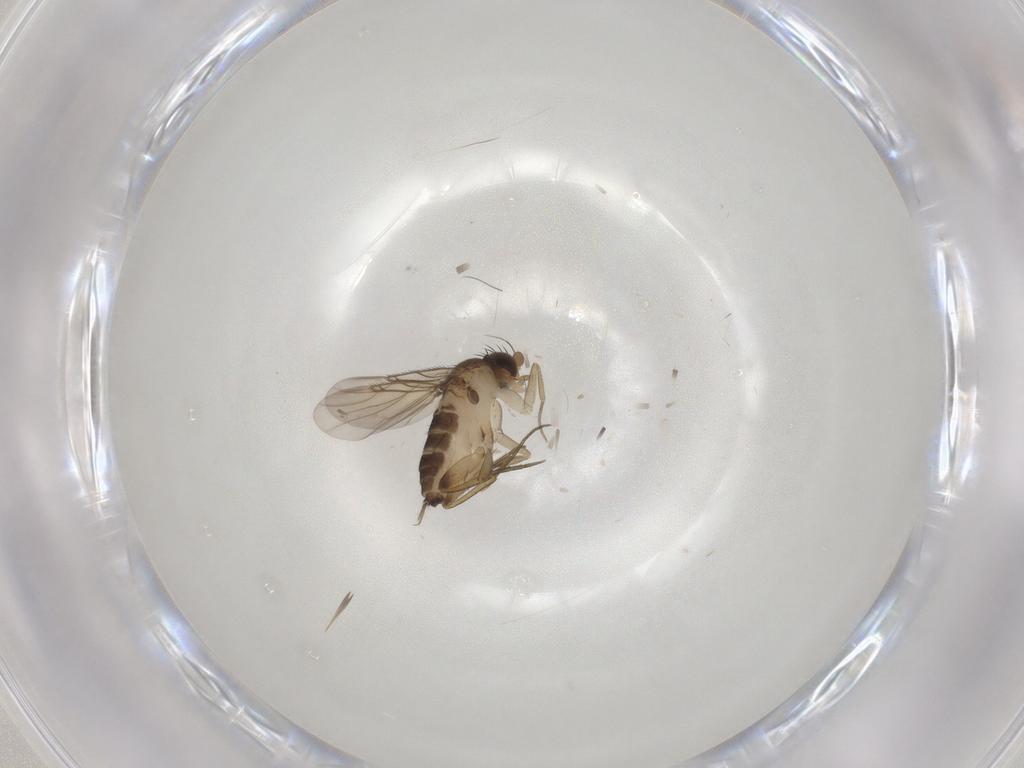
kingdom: Animalia
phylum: Arthropoda
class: Insecta
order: Diptera
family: Phoridae
